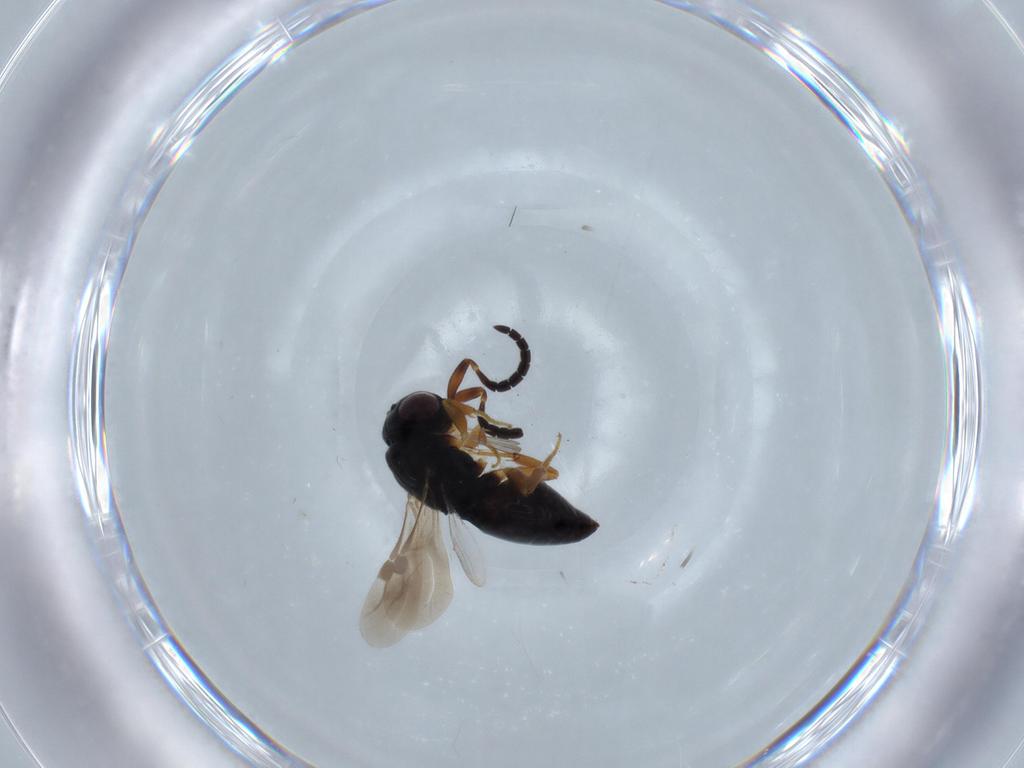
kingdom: Animalia
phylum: Arthropoda
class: Insecta
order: Hymenoptera
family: Megaspilidae
